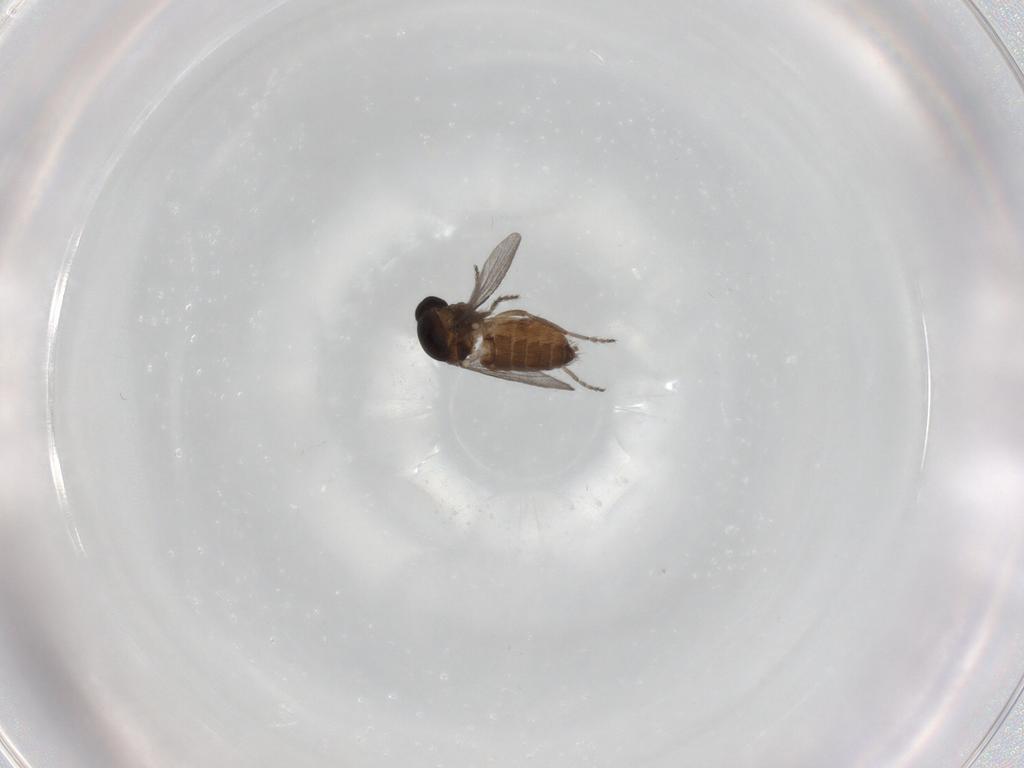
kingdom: Animalia
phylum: Arthropoda
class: Insecta
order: Diptera
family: Ceratopogonidae
